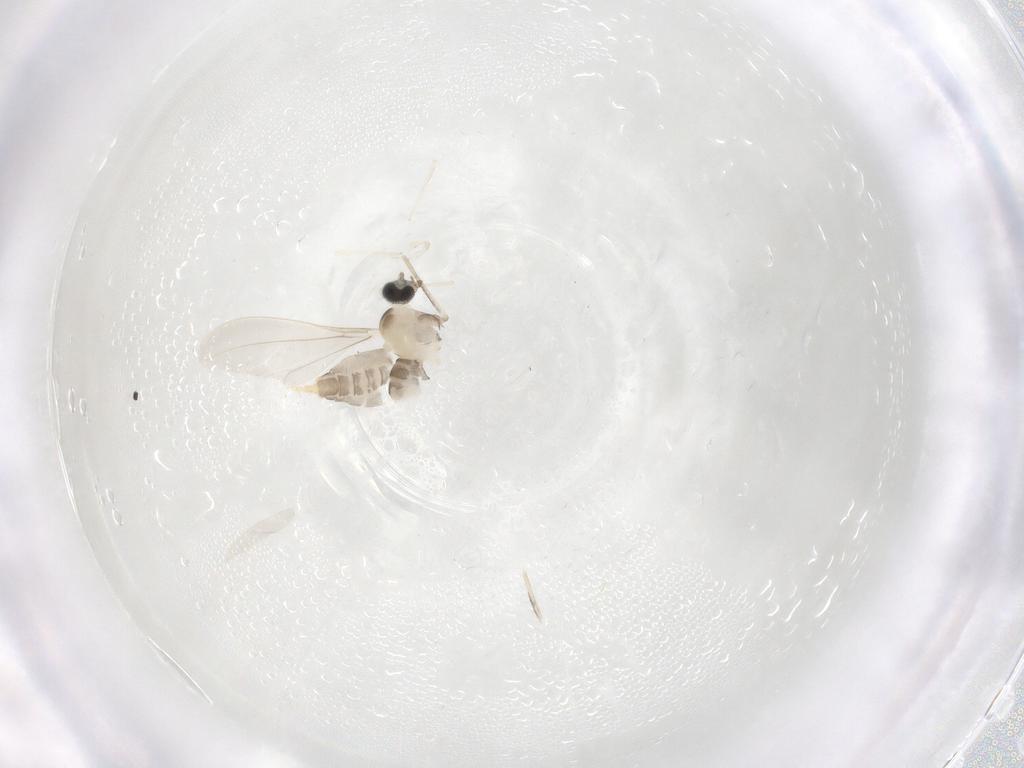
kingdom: Animalia
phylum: Arthropoda
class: Insecta
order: Diptera
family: Cecidomyiidae
